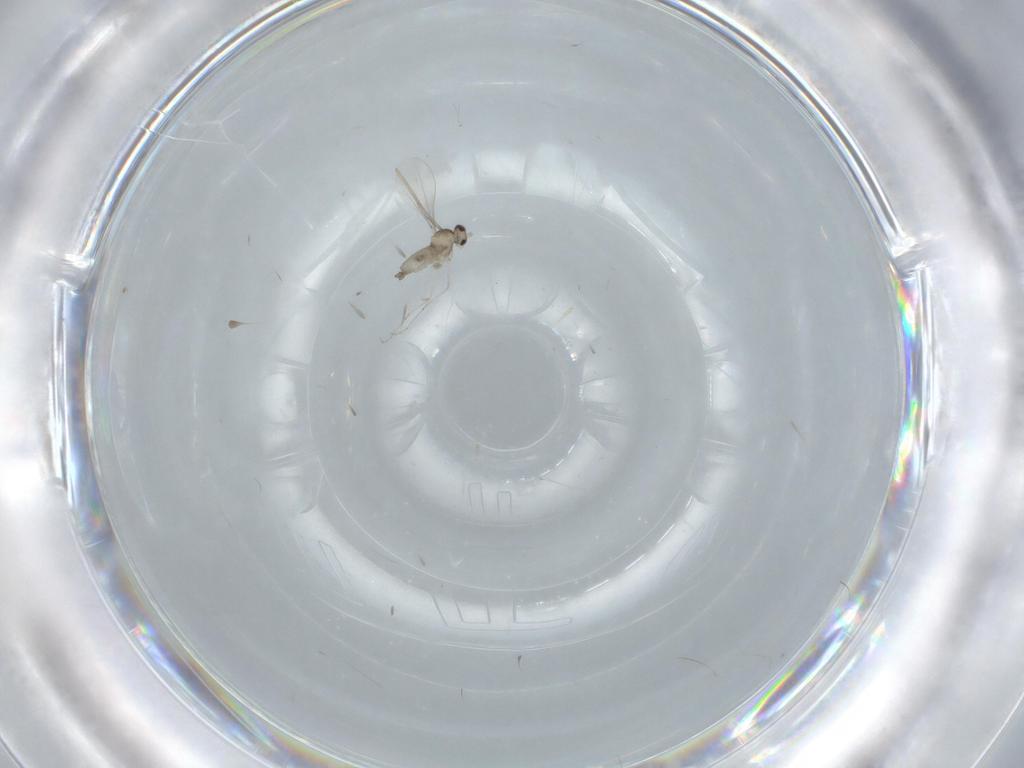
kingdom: Animalia
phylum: Arthropoda
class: Insecta
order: Diptera
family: Cecidomyiidae
